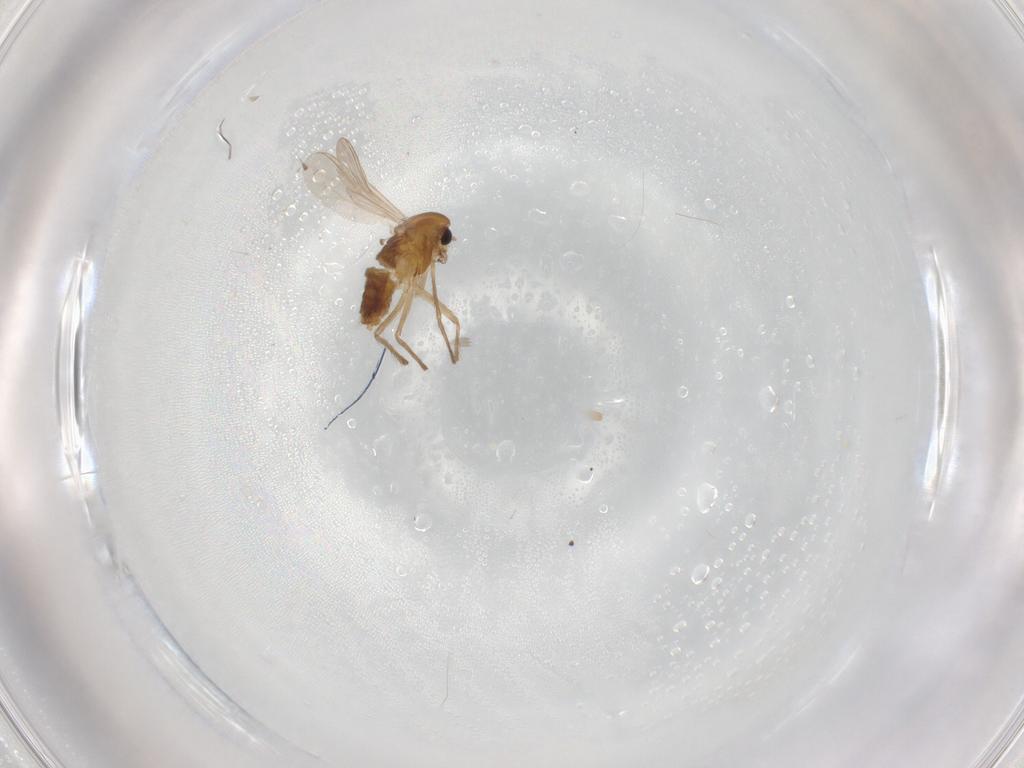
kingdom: Animalia
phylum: Arthropoda
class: Insecta
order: Diptera
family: Chironomidae
